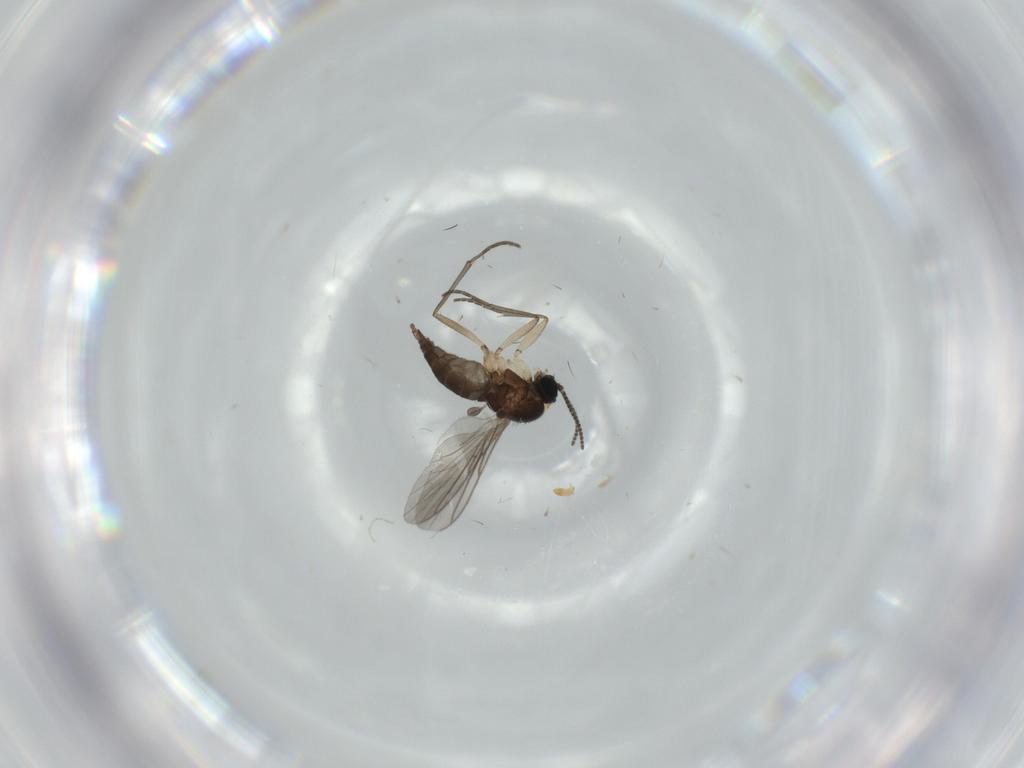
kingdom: Animalia
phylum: Arthropoda
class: Insecta
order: Diptera
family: Sciaridae
